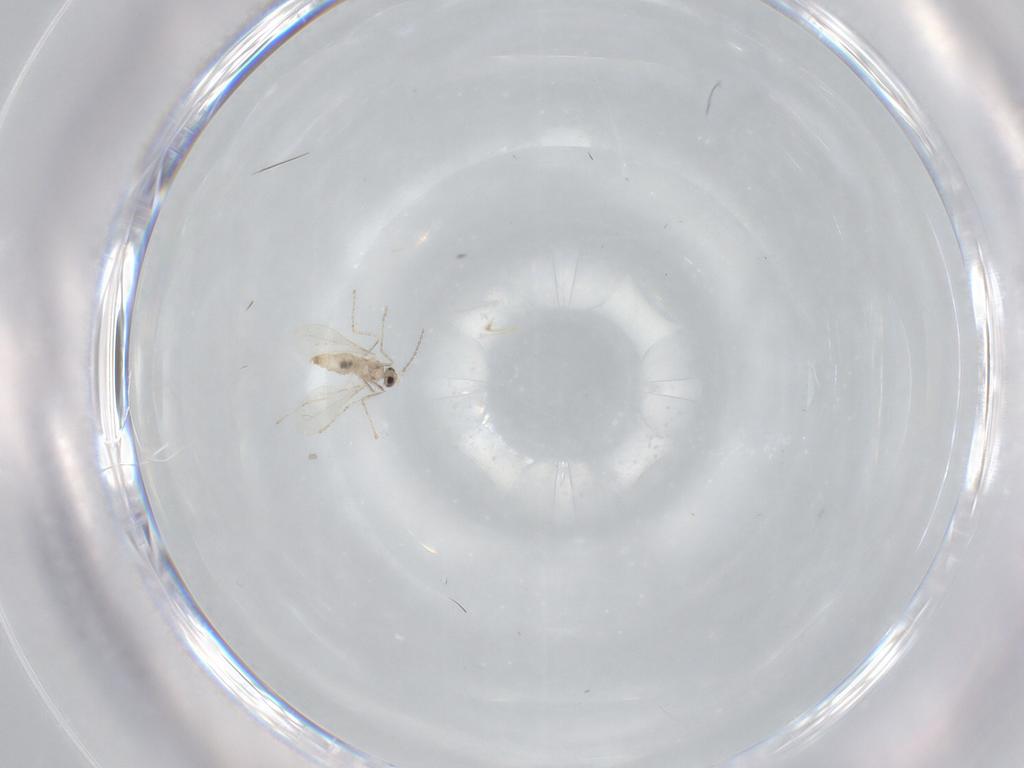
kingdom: Animalia
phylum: Arthropoda
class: Insecta
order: Diptera
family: Cecidomyiidae
